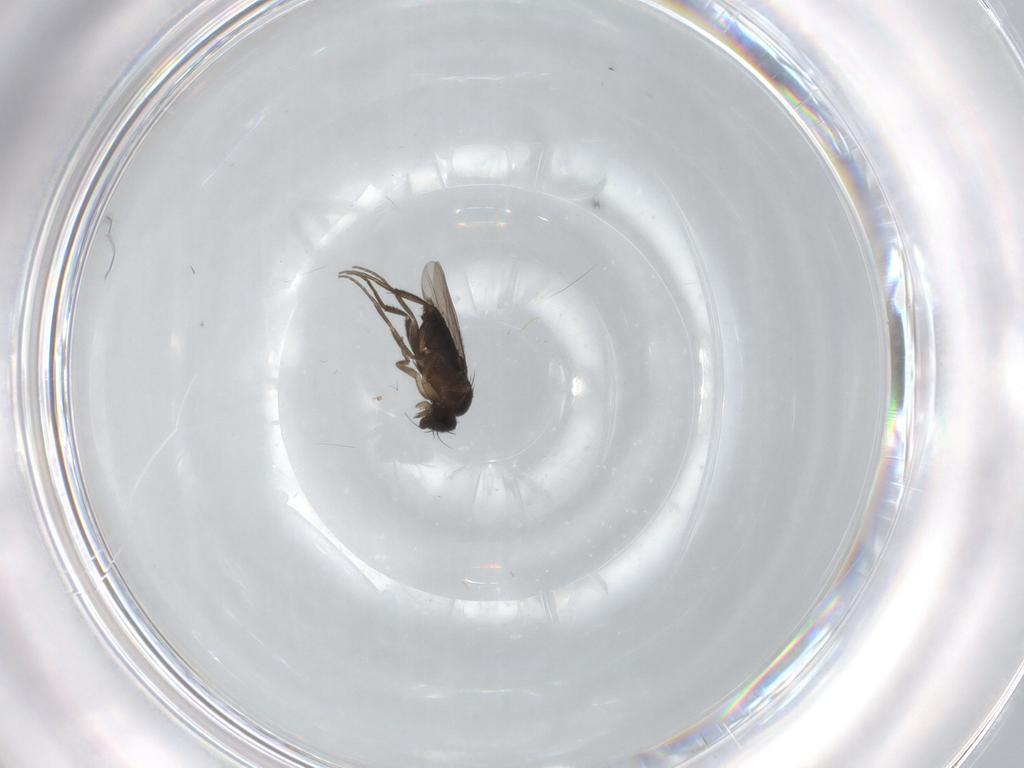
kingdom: Animalia
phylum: Arthropoda
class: Insecta
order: Diptera
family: Phoridae
